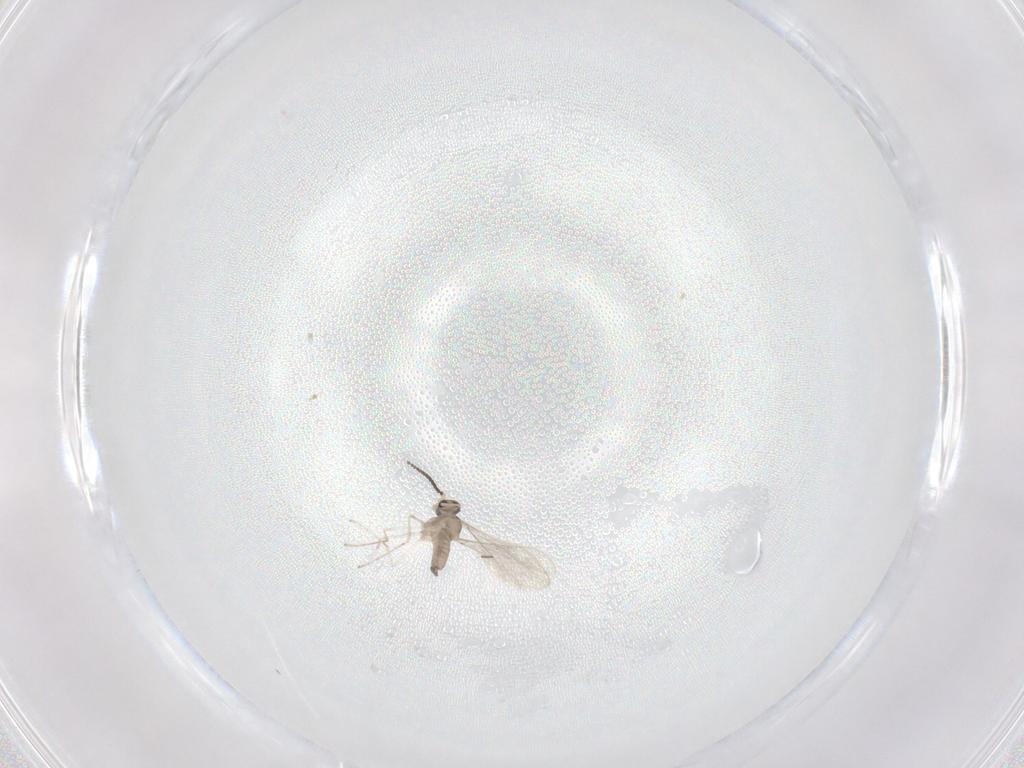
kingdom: Animalia
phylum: Arthropoda
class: Insecta
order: Diptera
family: Cecidomyiidae
